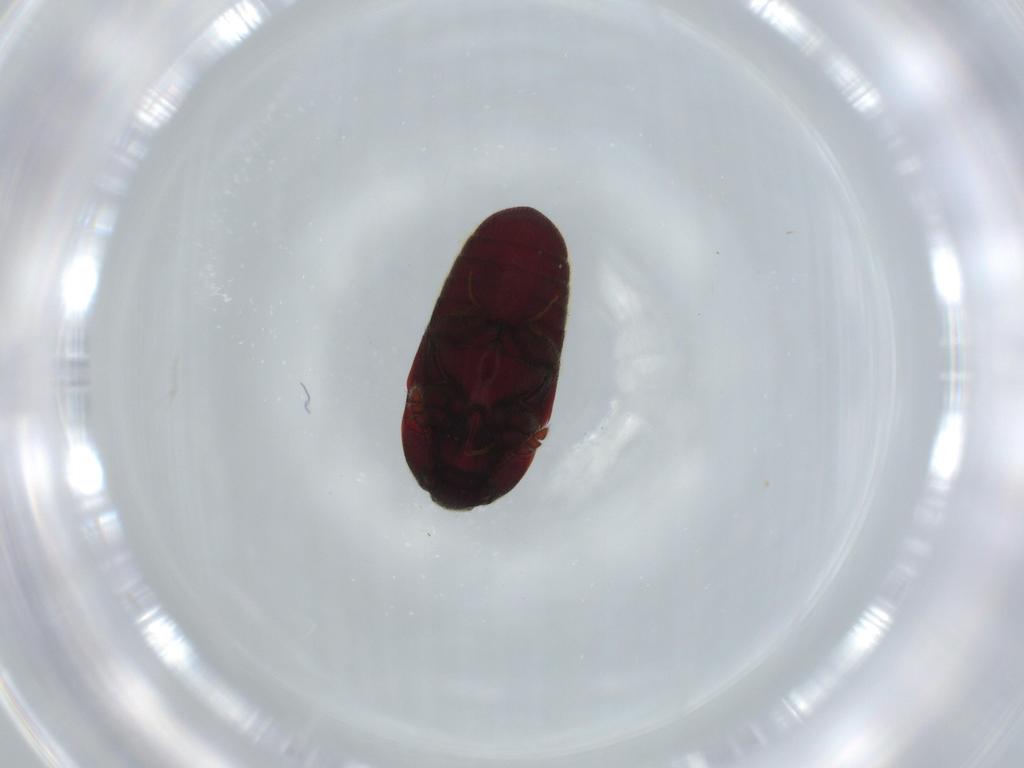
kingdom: Animalia
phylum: Arthropoda
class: Insecta
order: Coleoptera
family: Throscidae
